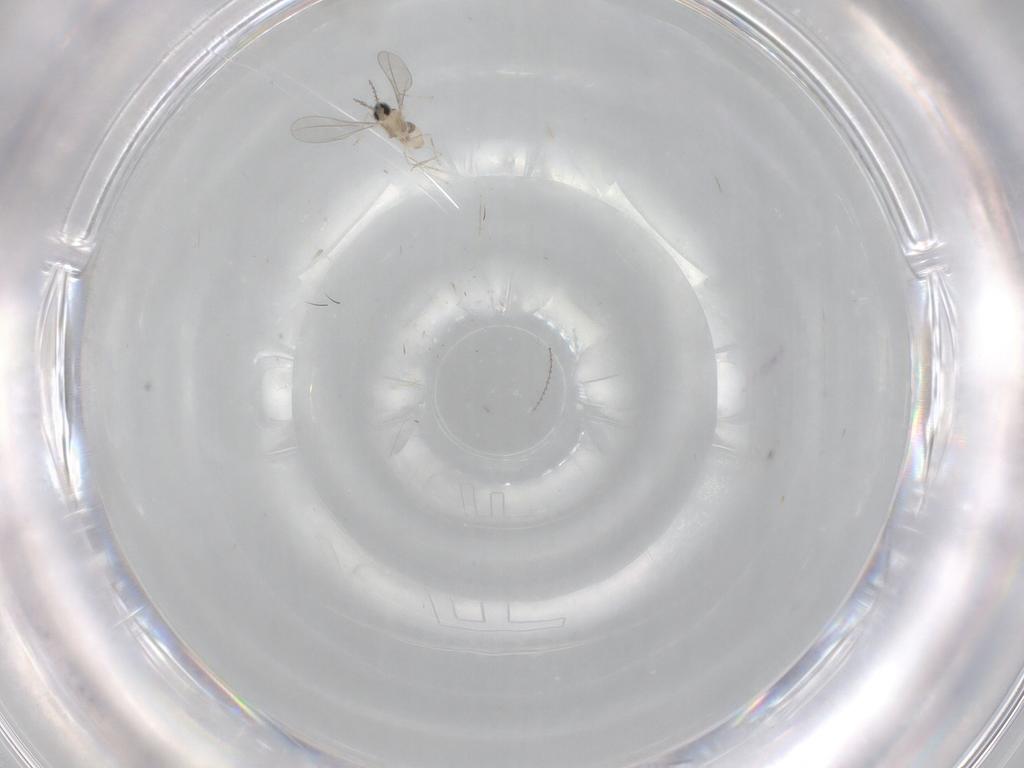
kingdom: Animalia
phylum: Arthropoda
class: Insecta
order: Diptera
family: Cecidomyiidae
